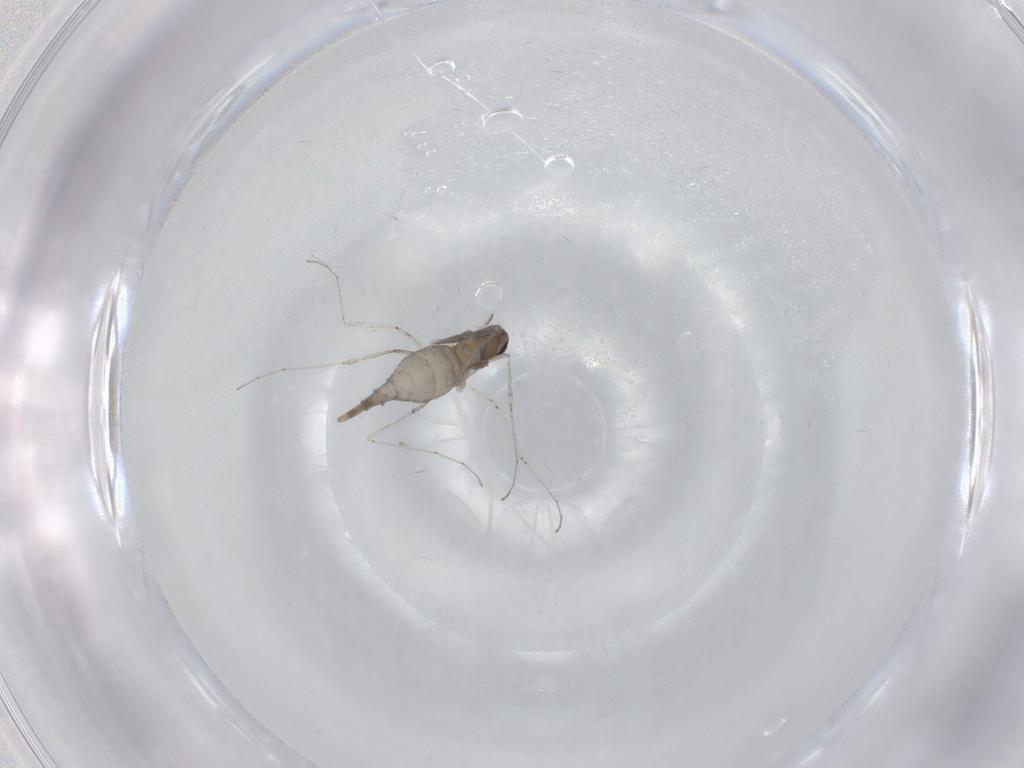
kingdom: Animalia
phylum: Arthropoda
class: Insecta
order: Diptera
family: Cecidomyiidae
